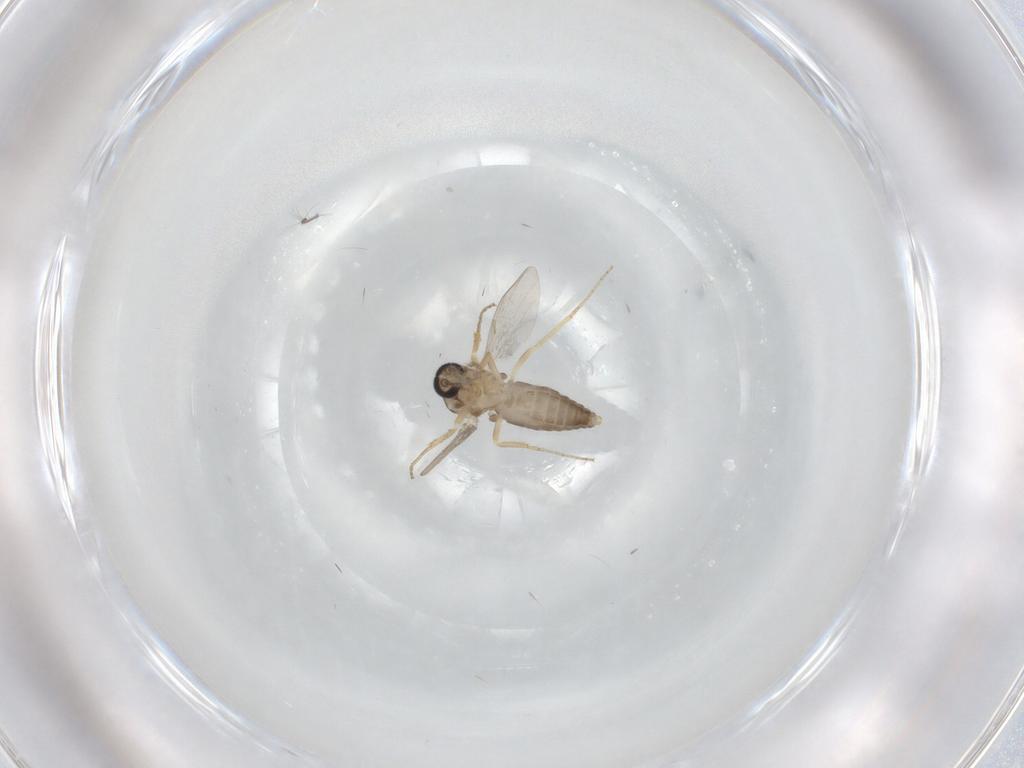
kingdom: Animalia
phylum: Arthropoda
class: Insecta
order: Diptera
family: Ceratopogonidae
